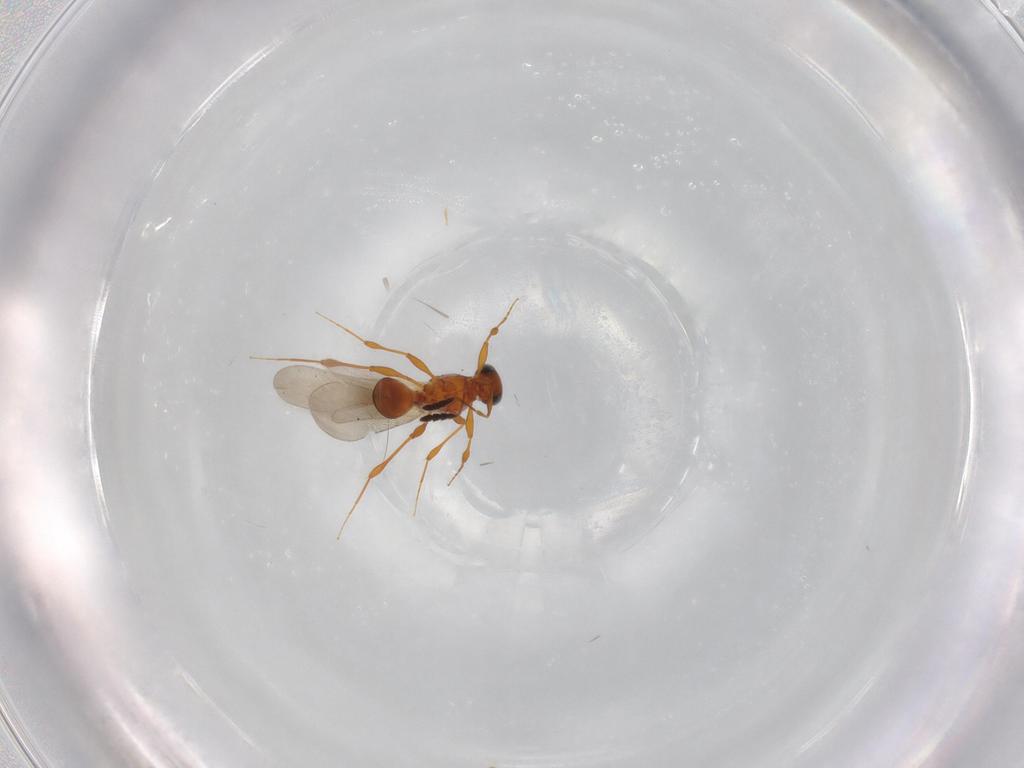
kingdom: Animalia
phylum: Arthropoda
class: Insecta
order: Hymenoptera
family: Platygastridae
